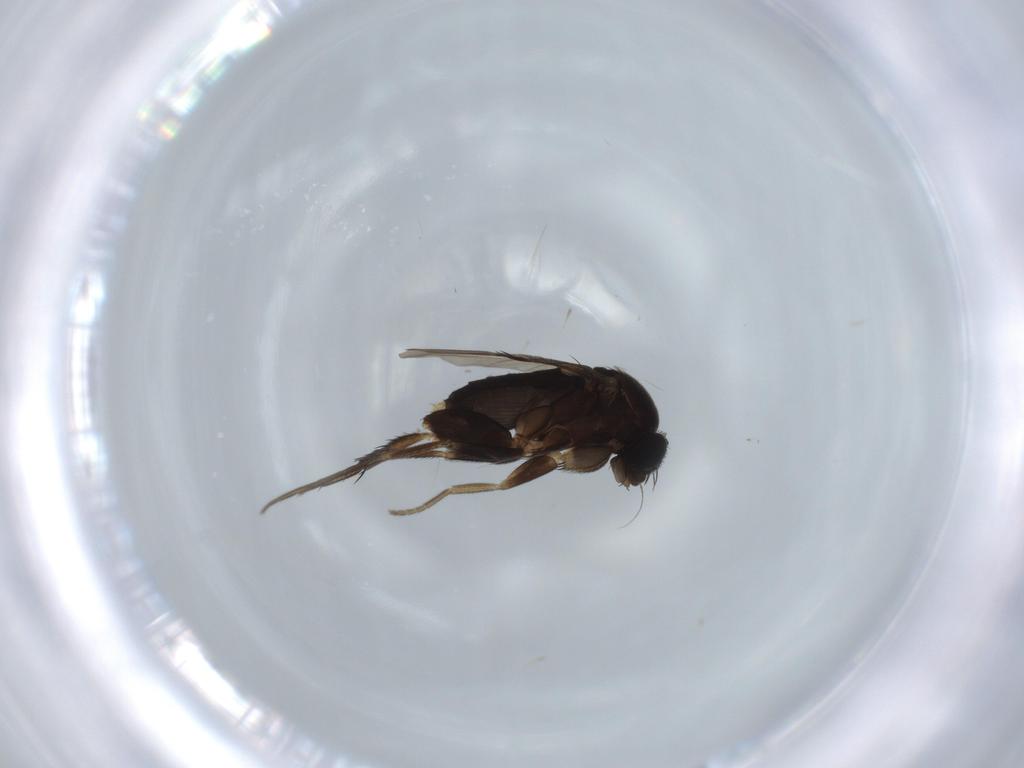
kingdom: Animalia
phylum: Arthropoda
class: Insecta
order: Diptera
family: Phoridae
